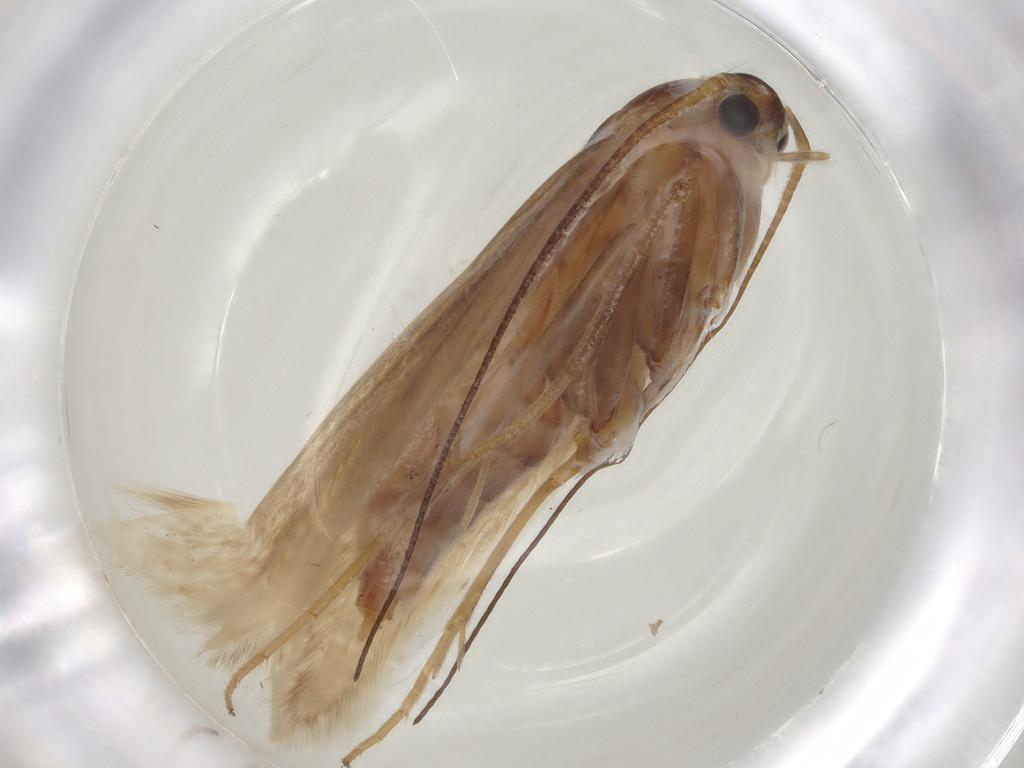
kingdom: Animalia
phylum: Arthropoda
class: Insecta
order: Lepidoptera
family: Coleophoridae
